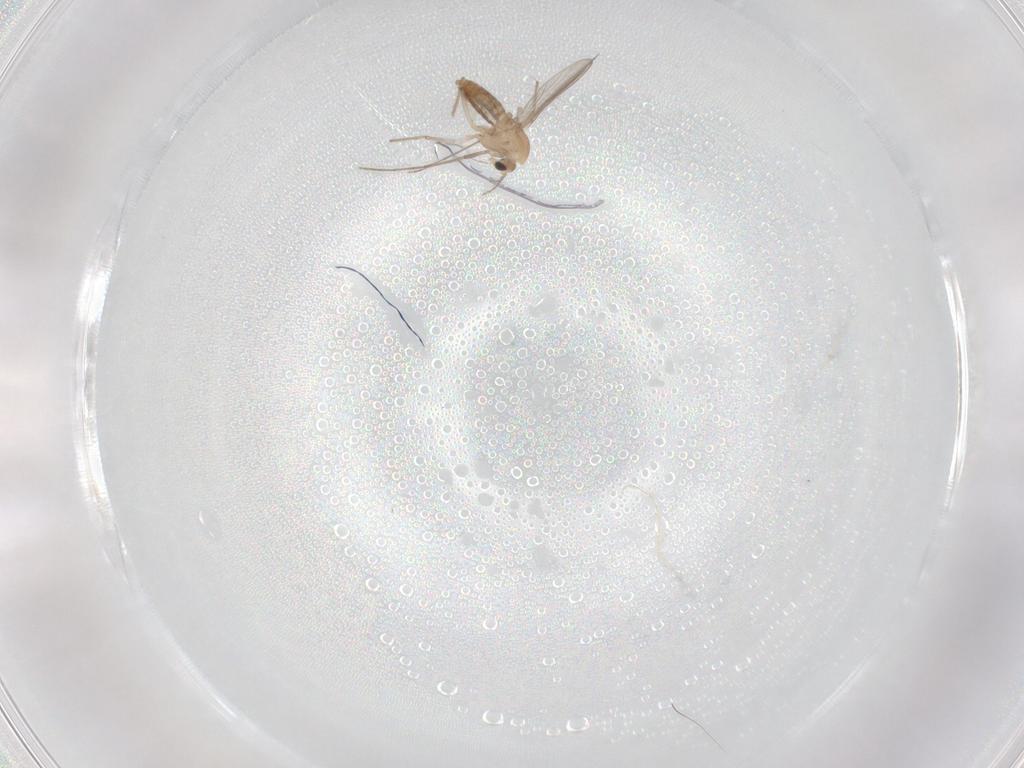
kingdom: Animalia
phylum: Arthropoda
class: Insecta
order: Diptera
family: Chironomidae
